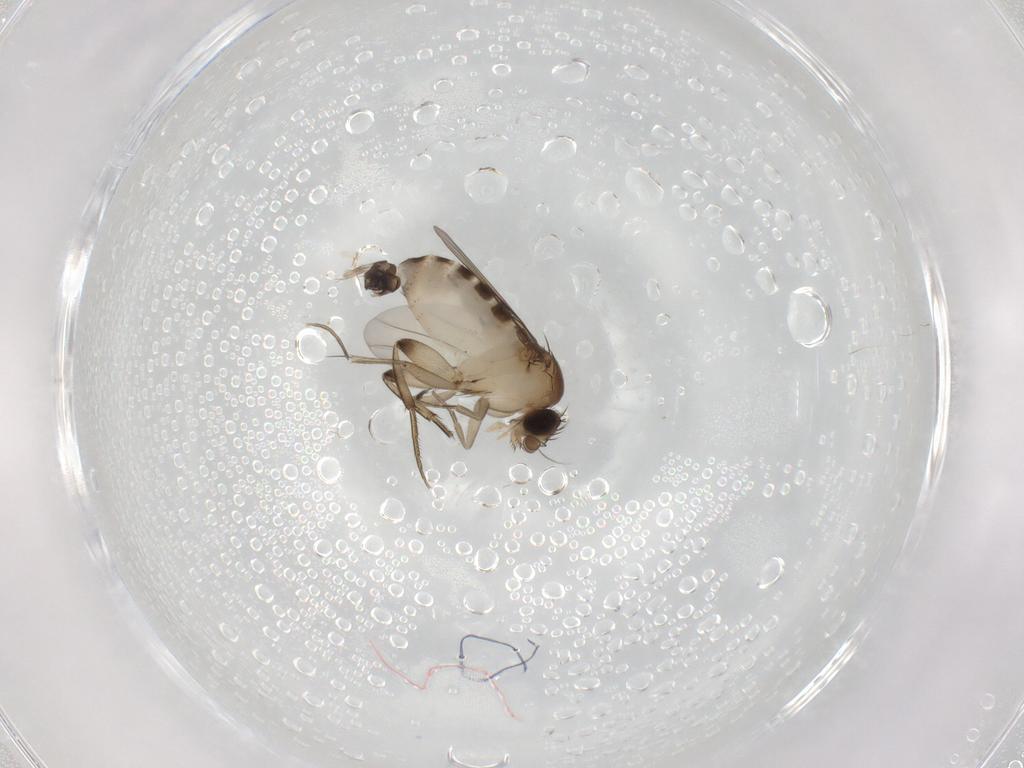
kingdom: Animalia
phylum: Arthropoda
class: Insecta
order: Diptera
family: Phoridae
